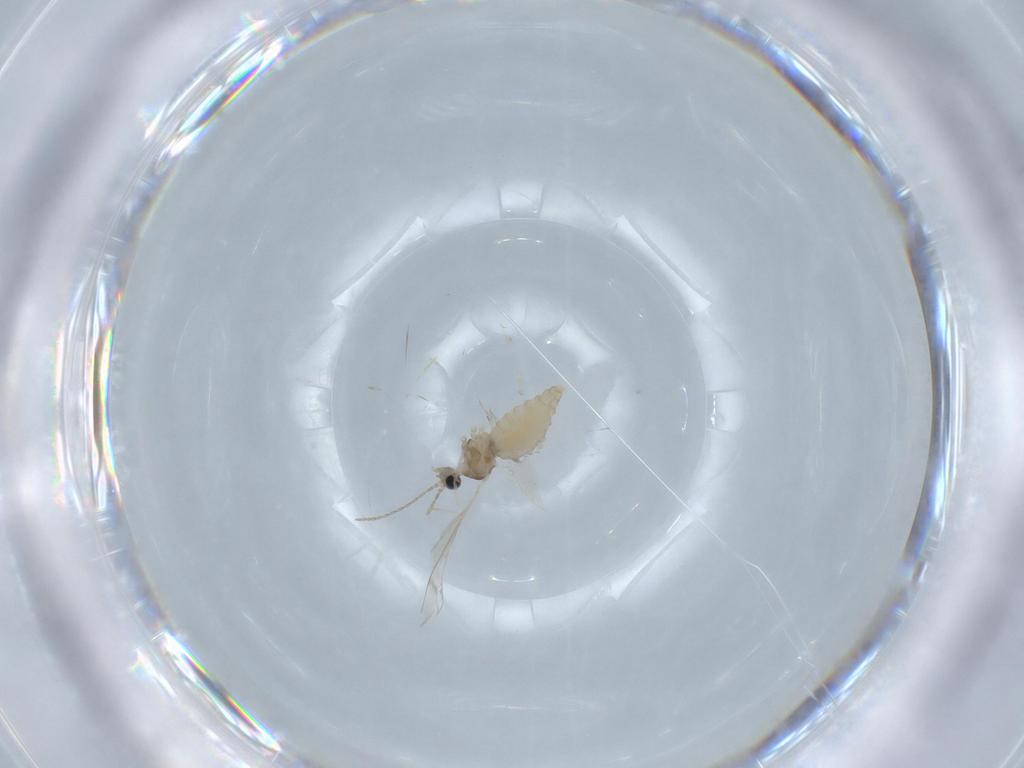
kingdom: Animalia
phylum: Arthropoda
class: Insecta
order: Diptera
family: Cecidomyiidae
